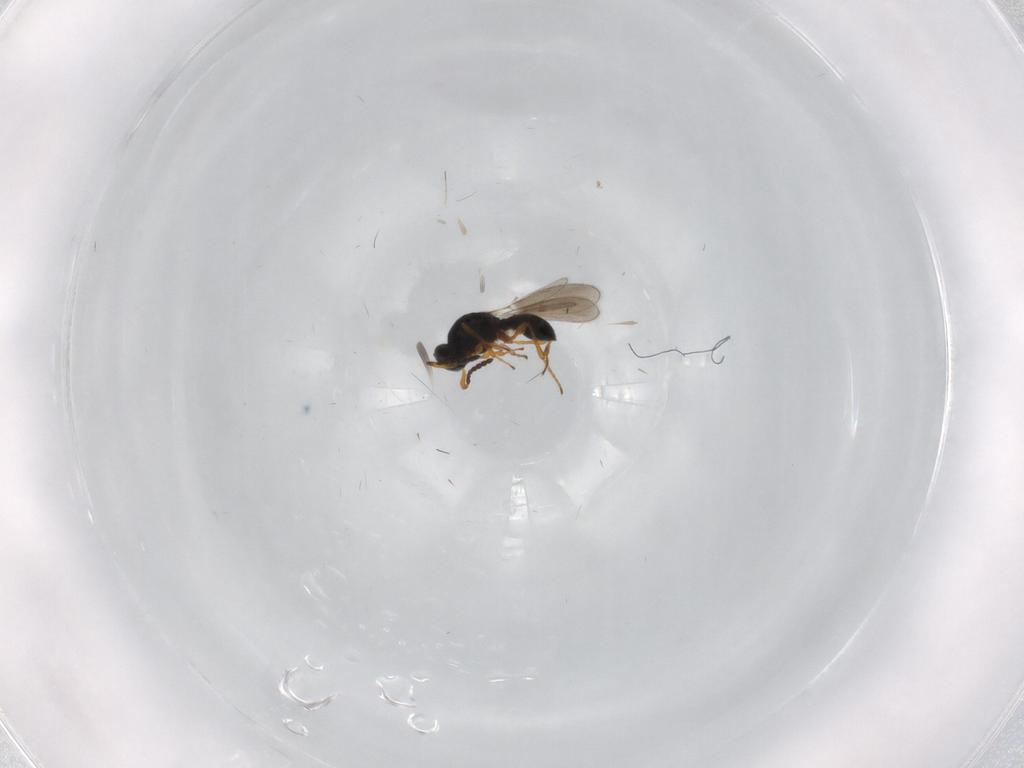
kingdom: Animalia
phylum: Arthropoda
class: Insecta
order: Hymenoptera
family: Platygastridae
